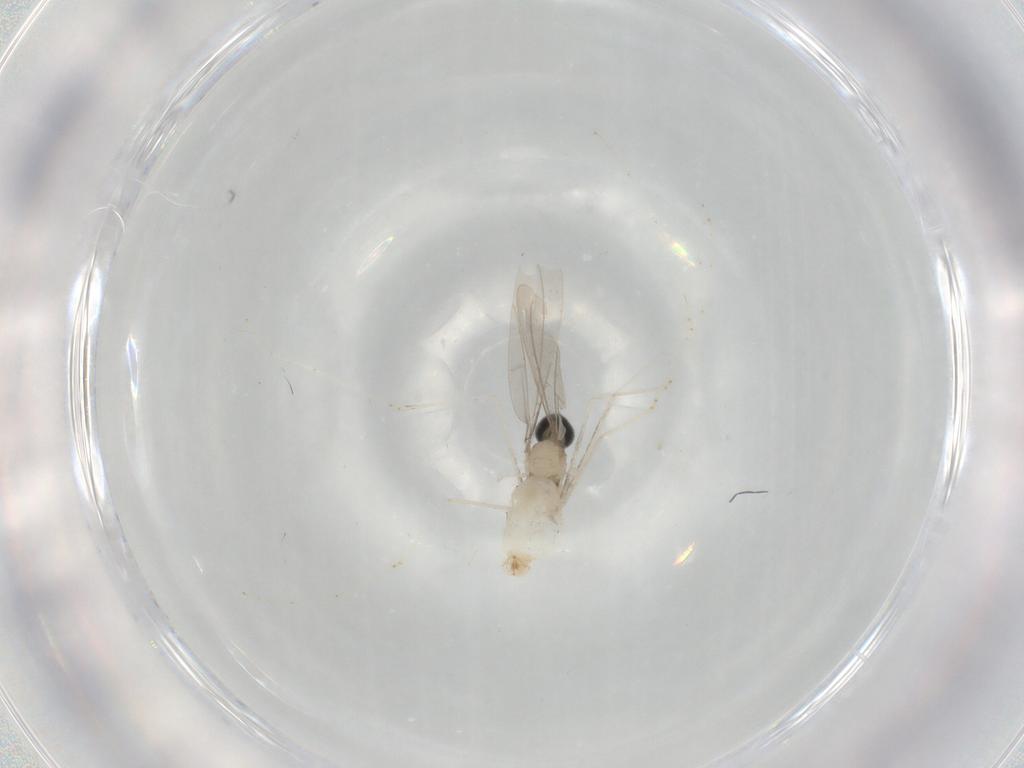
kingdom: Animalia
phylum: Arthropoda
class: Insecta
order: Diptera
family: Cecidomyiidae
